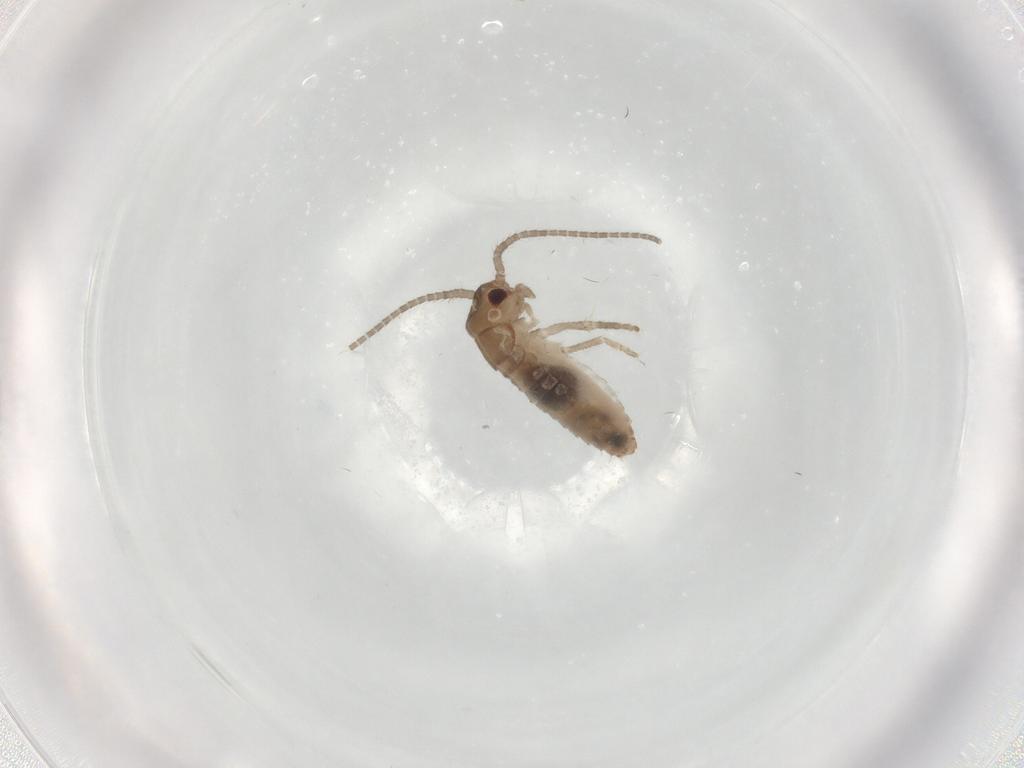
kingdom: Animalia
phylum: Arthropoda
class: Insecta
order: Orthoptera
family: Mogoplistidae
